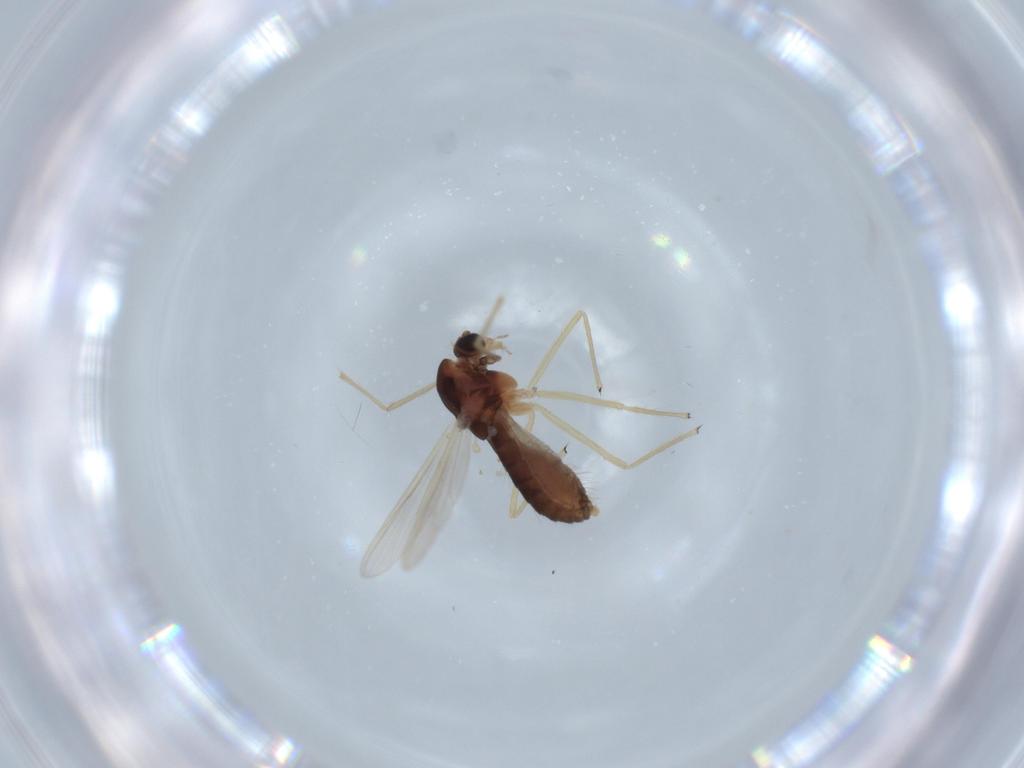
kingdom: Animalia
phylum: Arthropoda
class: Insecta
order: Diptera
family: Chironomidae
